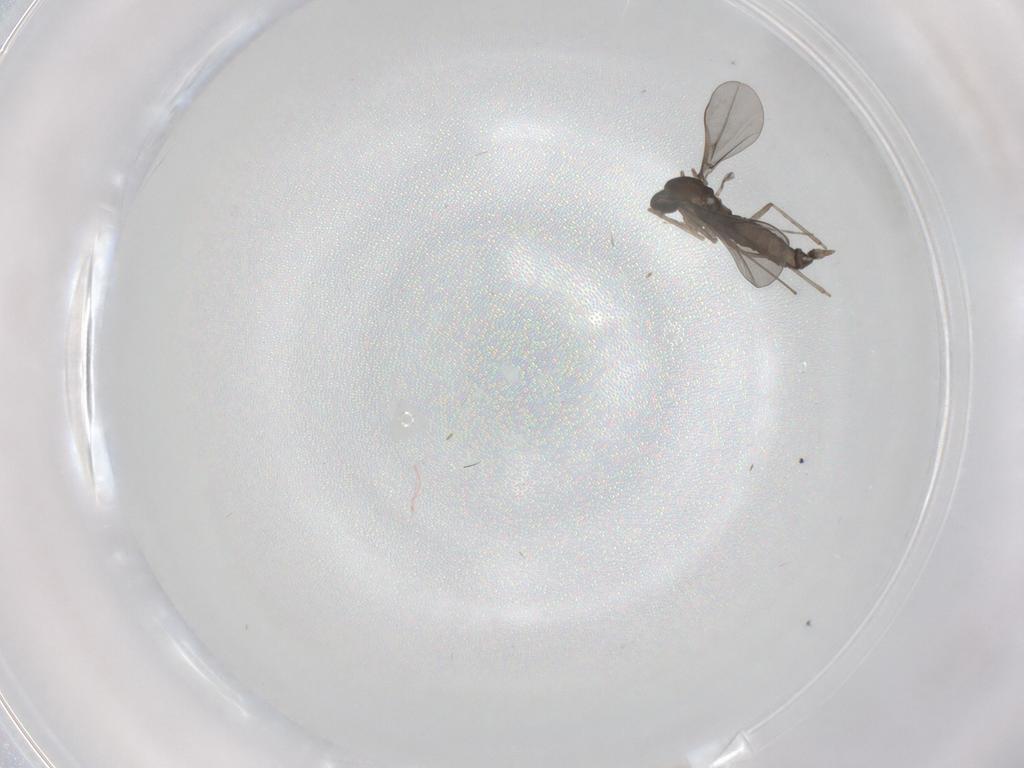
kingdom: Animalia
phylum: Arthropoda
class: Insecta
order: Diptera
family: Cecidomyiidae
